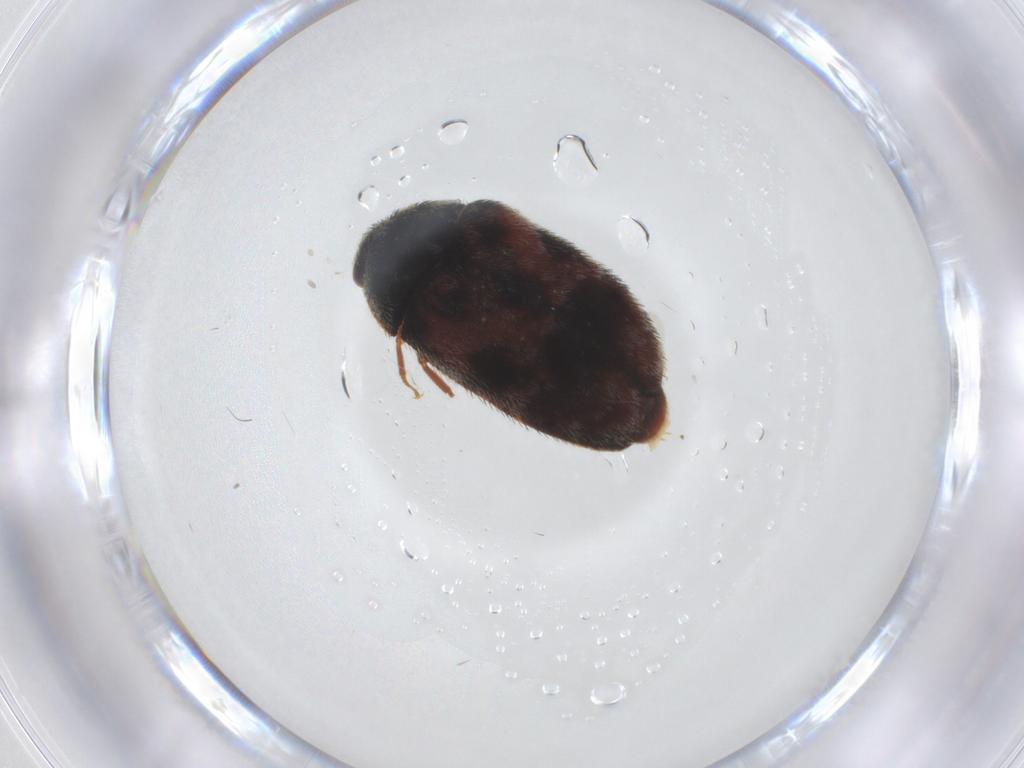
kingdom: Animalia
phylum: Arthropoda
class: Insecta
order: Coleoptera
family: Dermestidae
